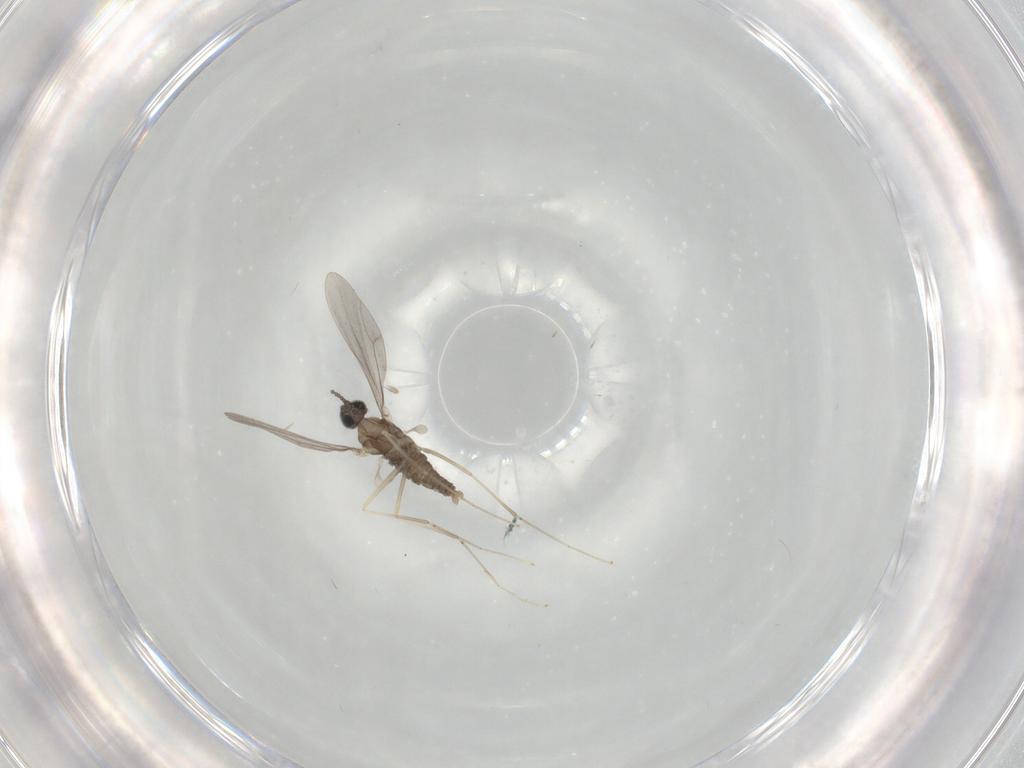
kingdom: Animalia
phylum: Arthropoda
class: Insecta
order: Diptera
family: Cecidomyiidae
